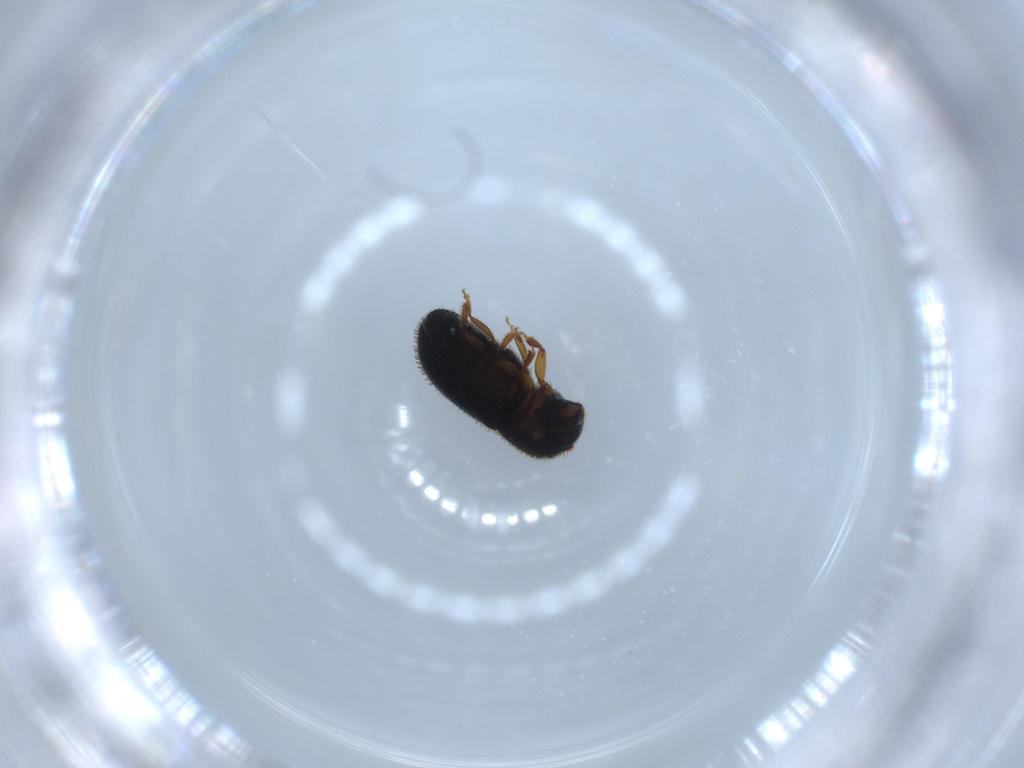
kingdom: Animalia
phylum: Arthropoda
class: Insecta
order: Coleoptera
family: Curculionidae
